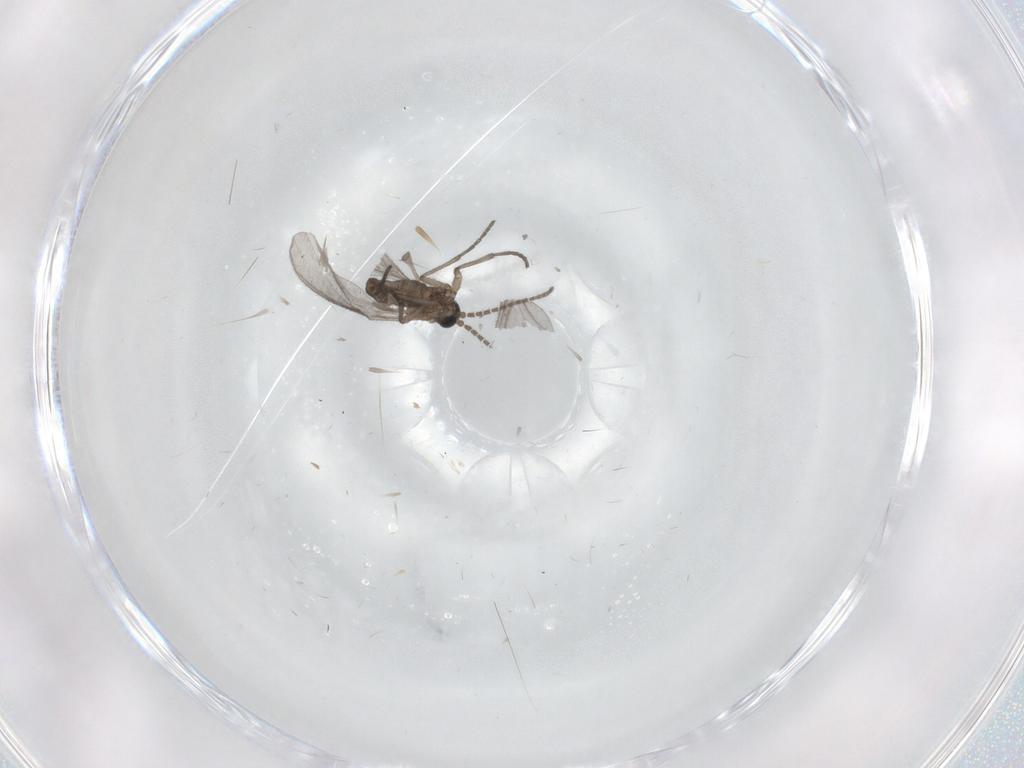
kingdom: Animalia
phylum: Arthropoda
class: Insecta
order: Diptera
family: Sciaridae
